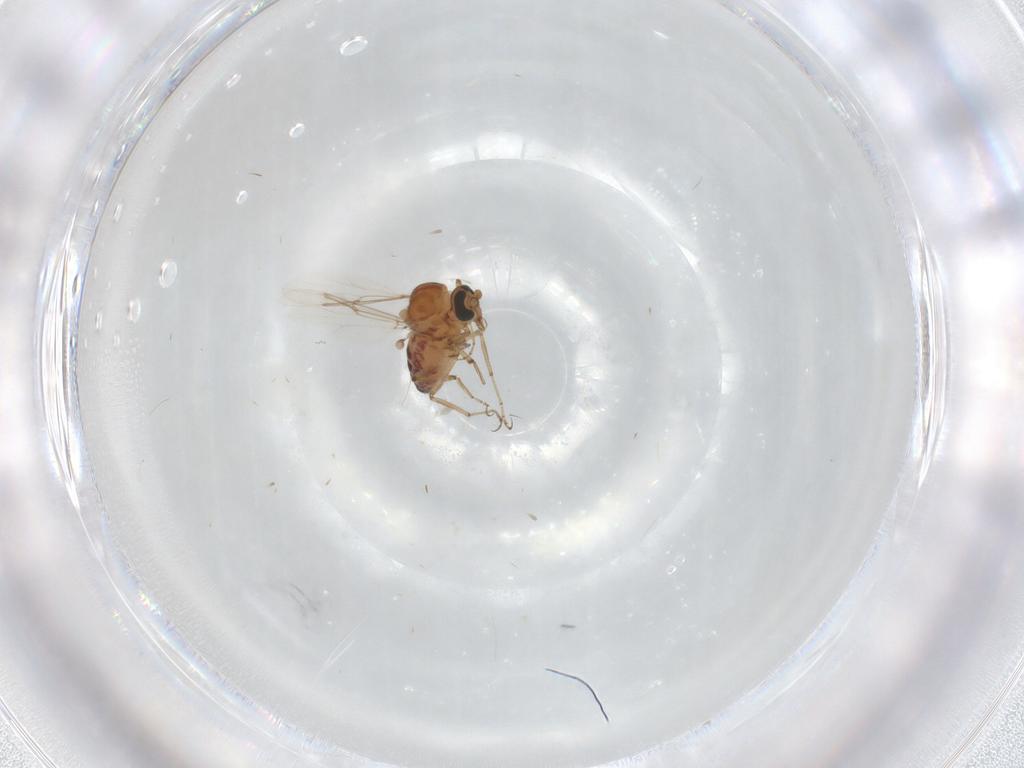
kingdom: Animalia
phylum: Arthropoda
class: Insecta
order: Diptera
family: Ceratopogonidae
